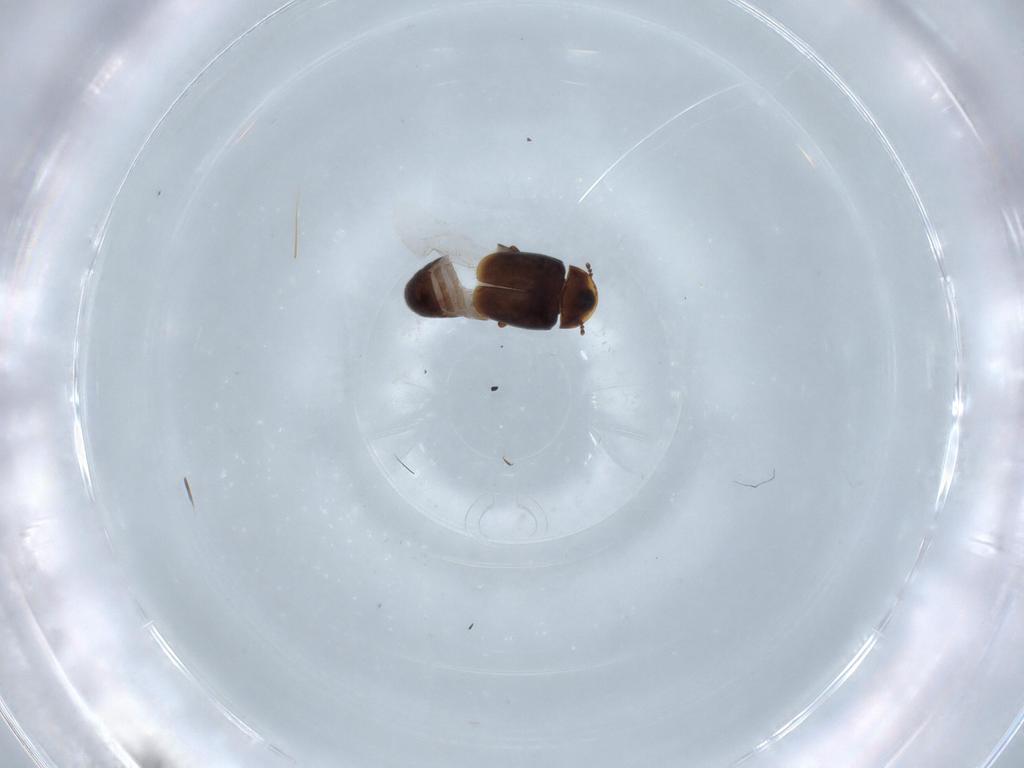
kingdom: Animalia
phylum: Arthropoda
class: Insecta
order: Coleoptera
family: Corylophidae
